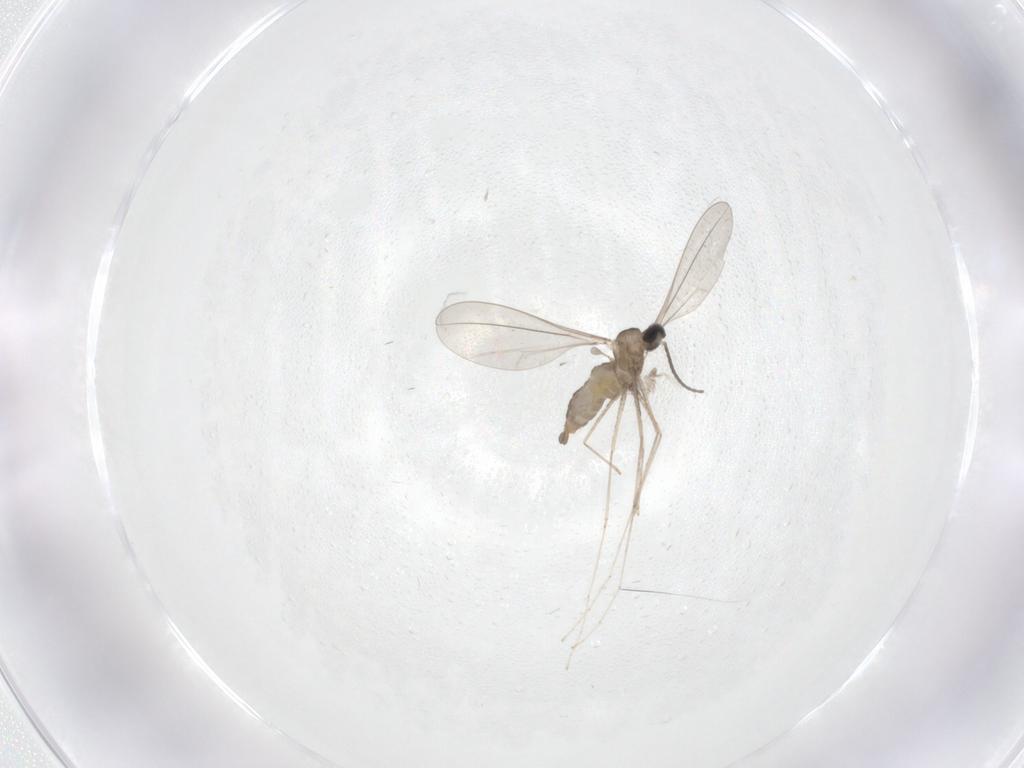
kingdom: Animalia
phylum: Arthropoda
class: Insecta
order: Diptera
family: Cecidomyiidae
